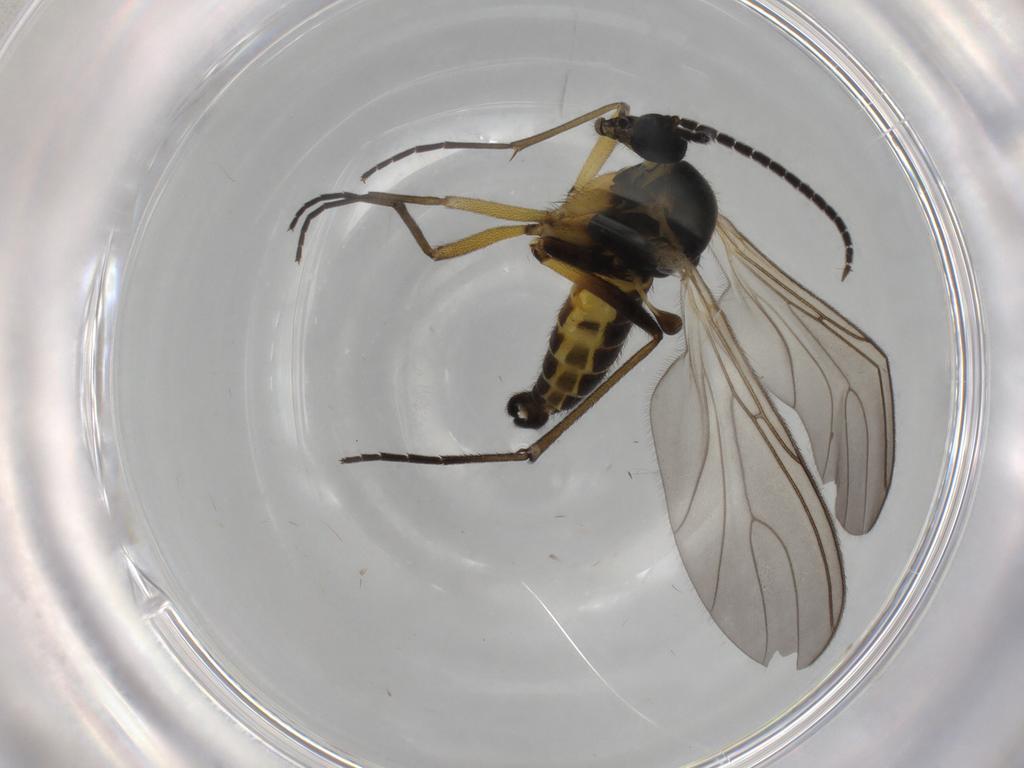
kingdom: Animalia
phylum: Arthropoda
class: Insecta
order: Diptera
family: Sciaridae
